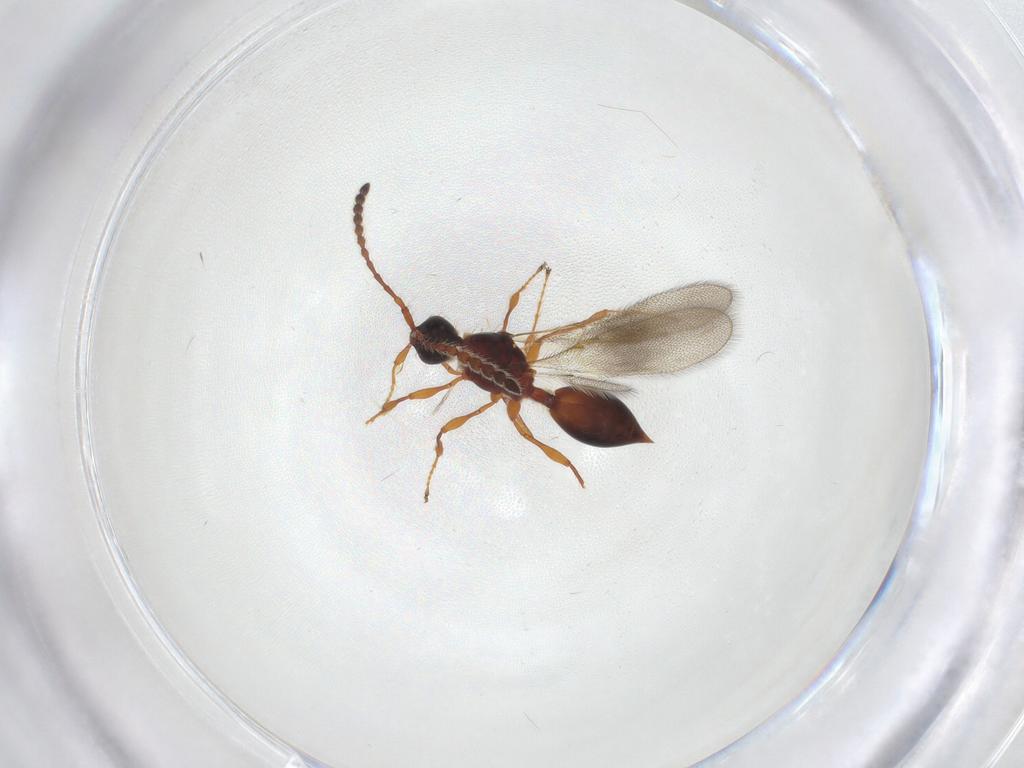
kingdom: Animalia
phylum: Arthropoda
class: Insecta
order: Hymenoptera
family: Diapriidae
